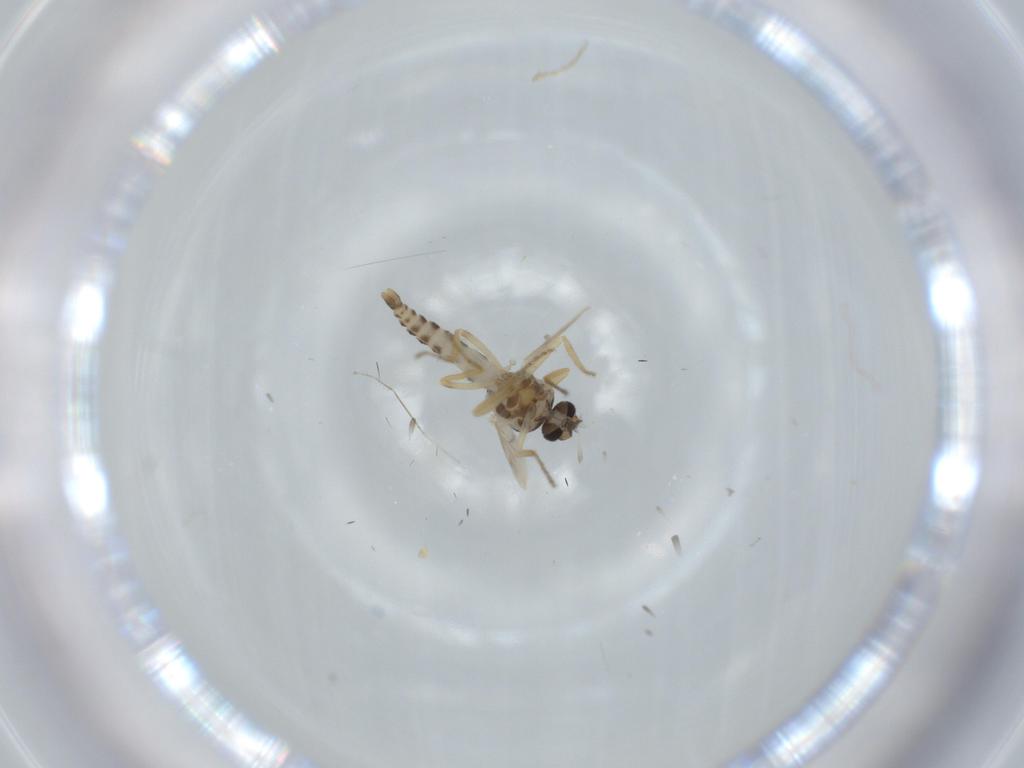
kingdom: Animalia
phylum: Arthropoda
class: Insecta
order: Diptera
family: Ceratopogonidae
